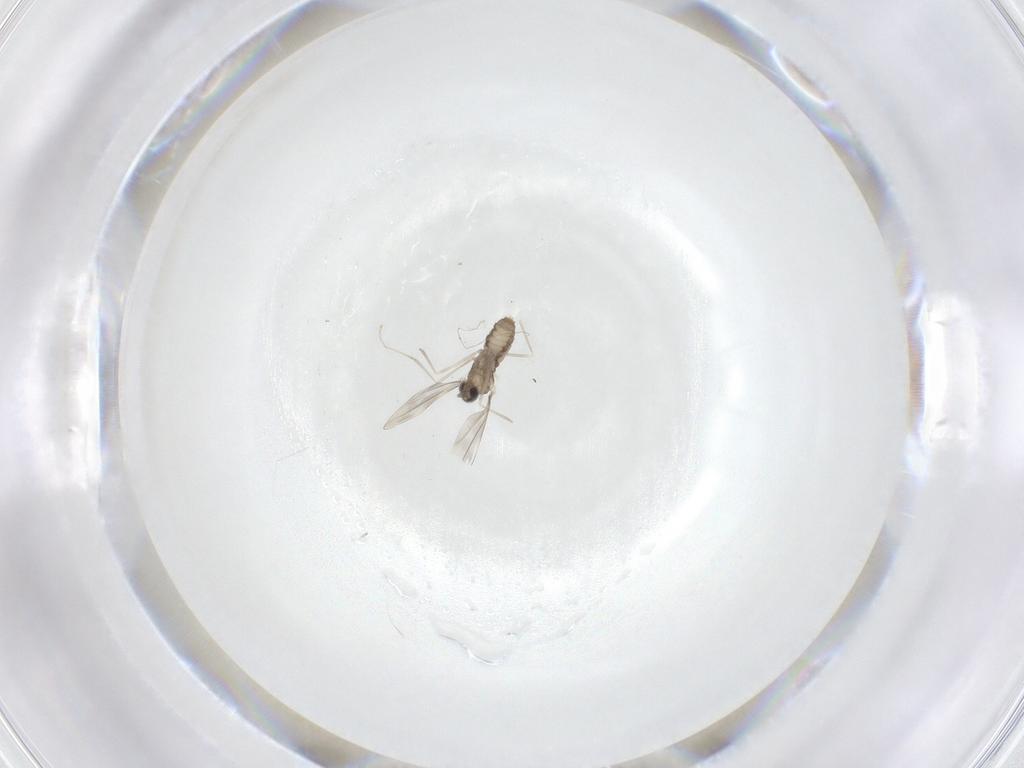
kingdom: Animalia
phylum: Arthropoda
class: Insecta
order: Diptera
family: Cecidomyiidae
